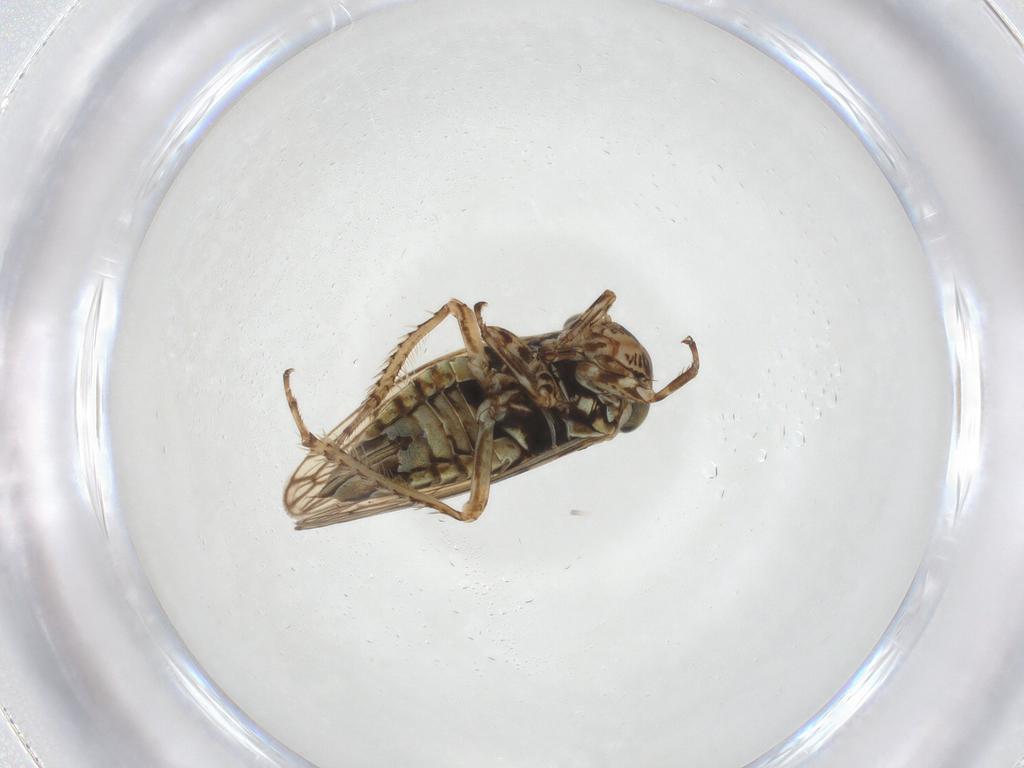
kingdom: Animalia
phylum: Arthropoda
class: Insecta
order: Hemiptera
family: Cicadellidae
